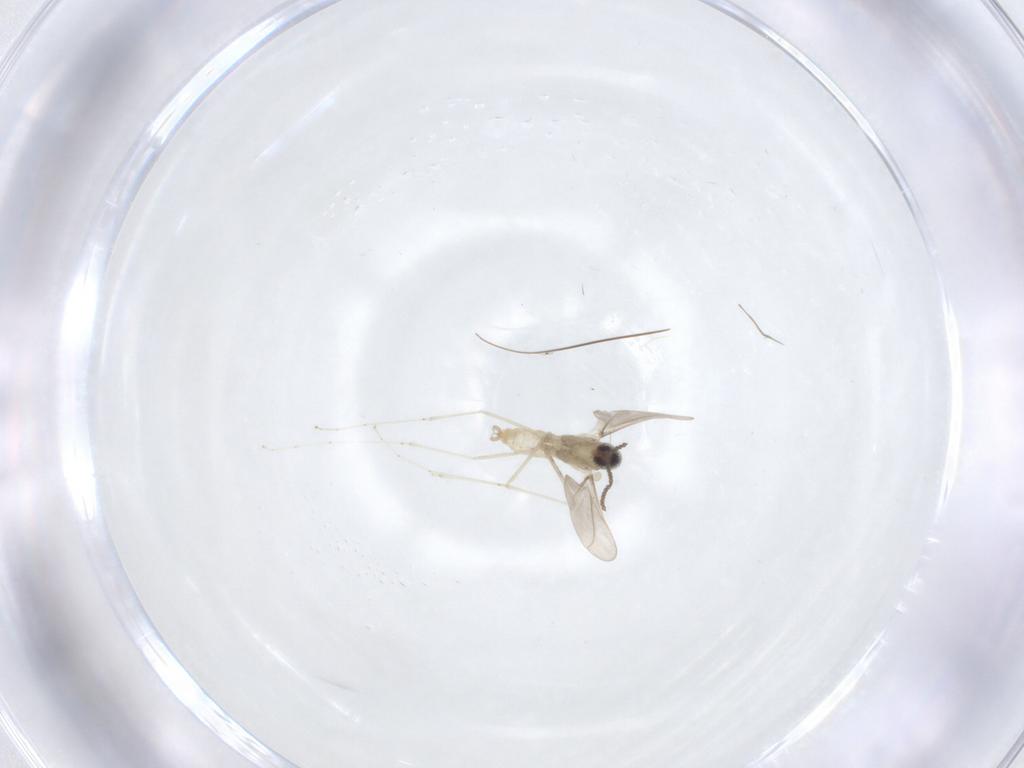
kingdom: Animalia
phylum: Arthropoda
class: Insecta
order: Diptera
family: Cecidomyiidae
